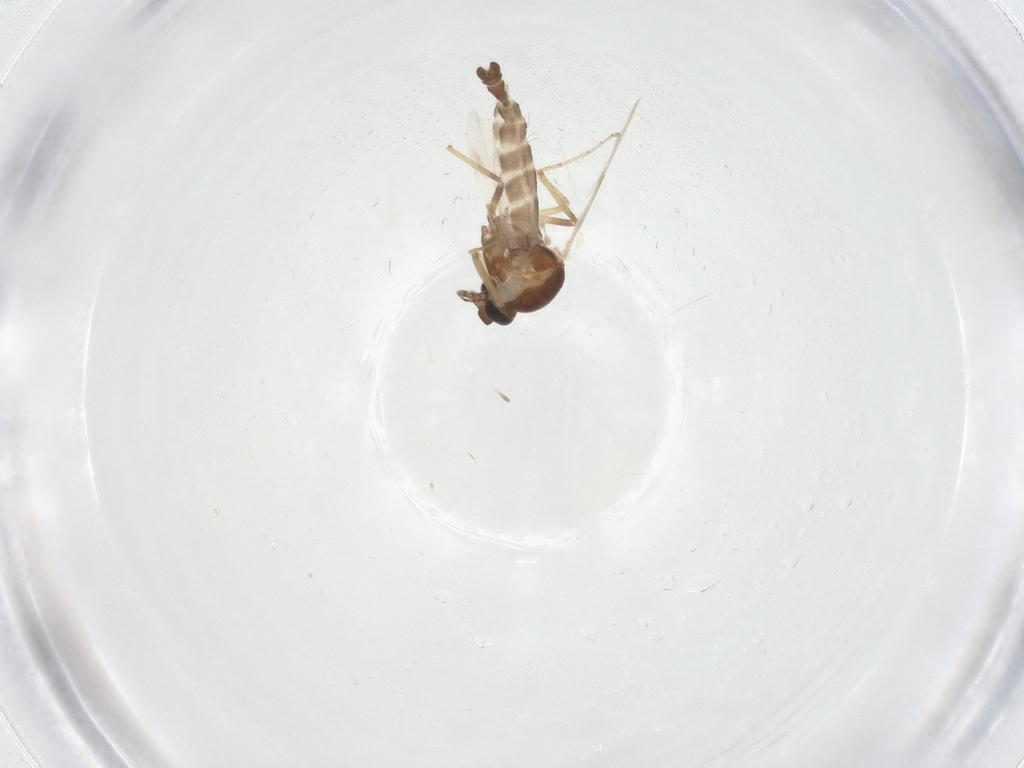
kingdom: Animalia
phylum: Arthropoda
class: Insecta
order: Diptera
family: Ceratopogonidae
